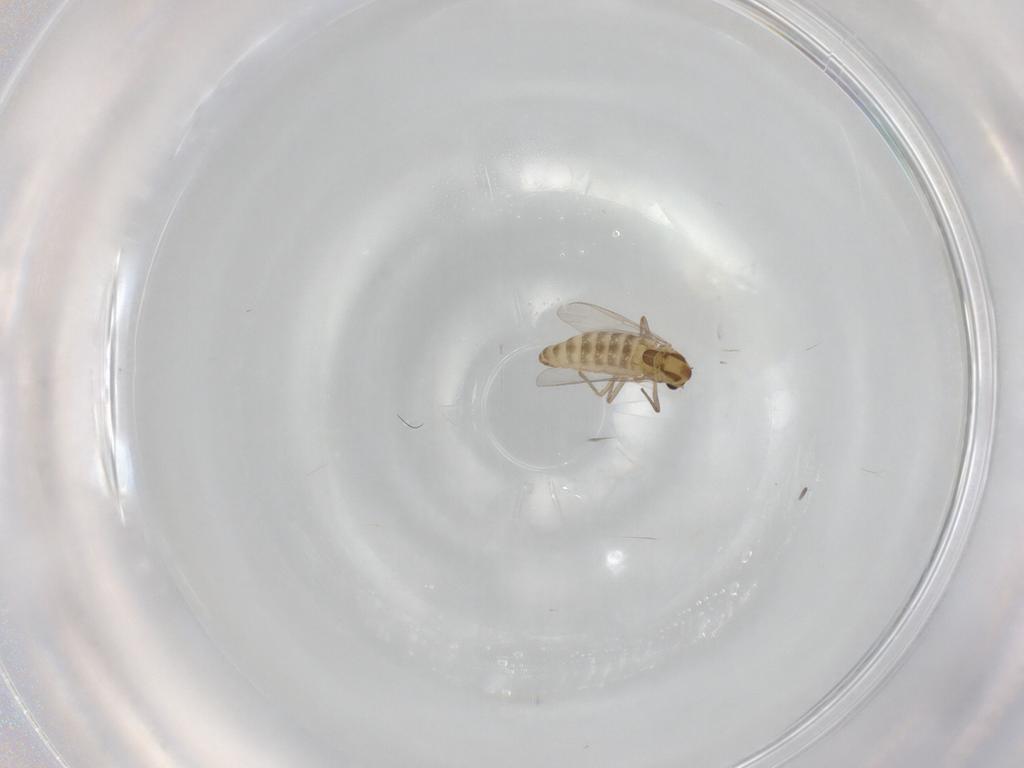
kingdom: Animalia
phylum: Arthropoda
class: Insecta
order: Diptera
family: Chironomidae
